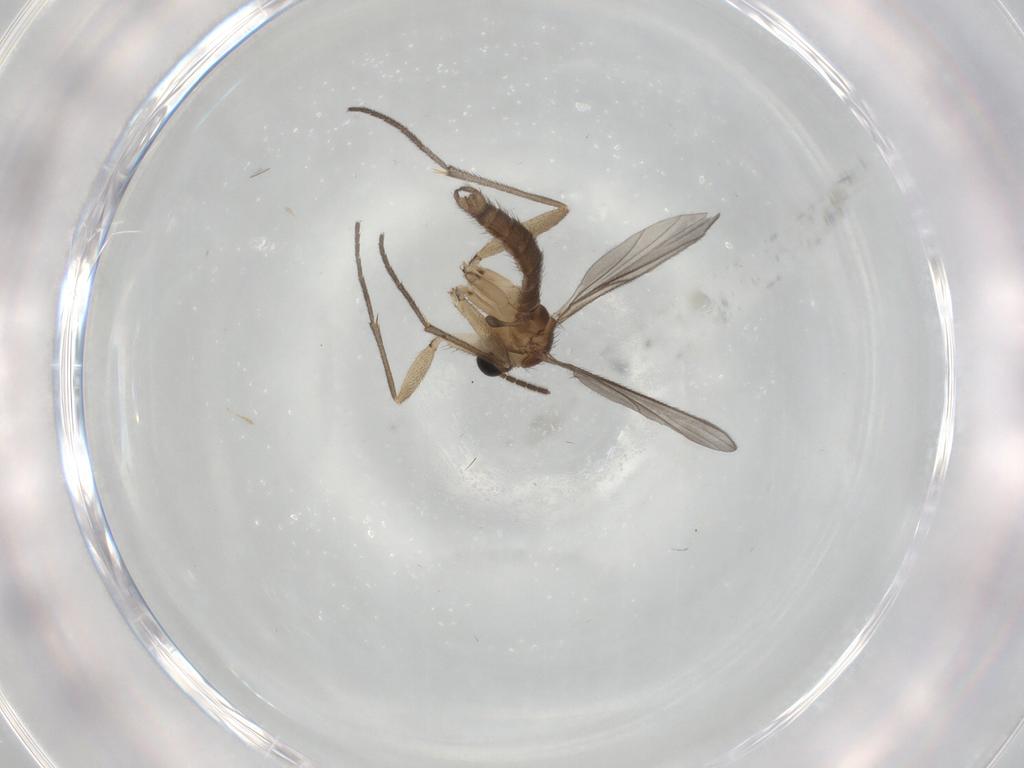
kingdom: Animalia
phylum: Arthropoda
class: Insecta
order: Diptera
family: Sciaridae
